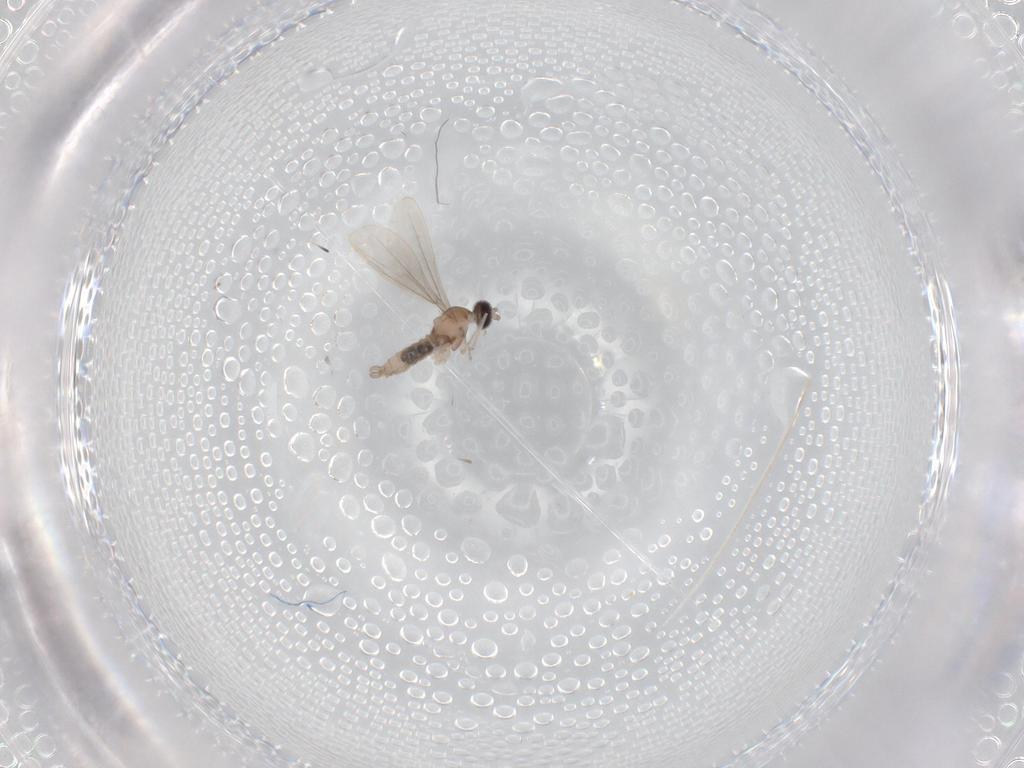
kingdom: Animalia
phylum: Arthropoda
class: Insecta
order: Diptera
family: Cecidomyiidae
